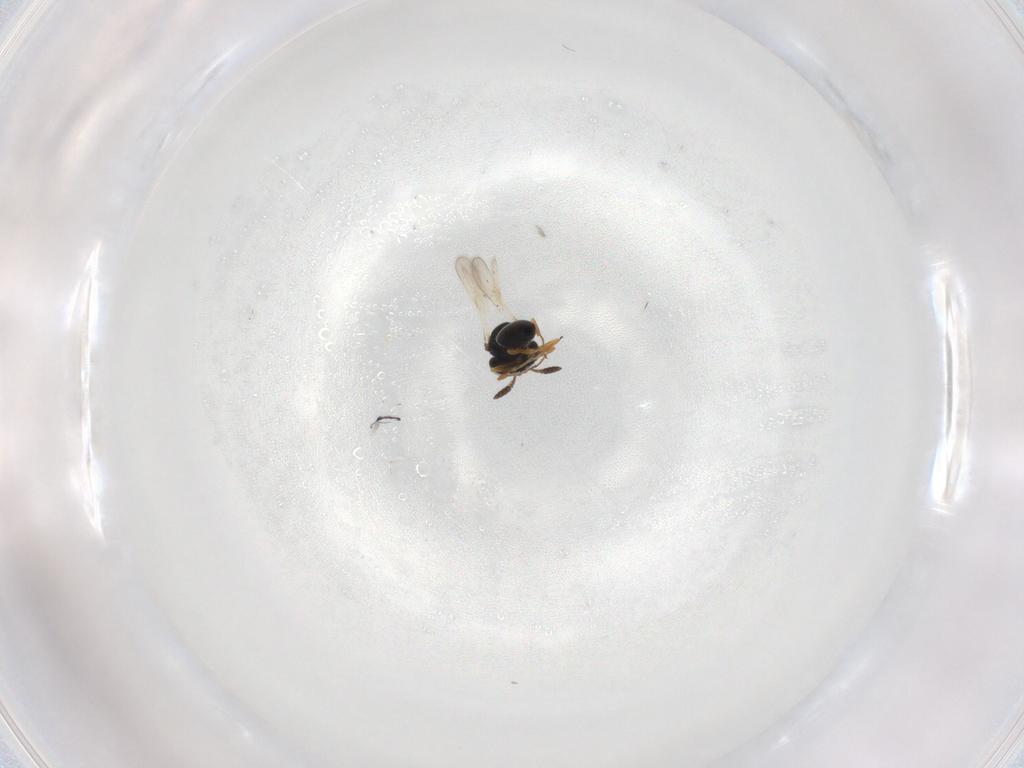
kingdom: Animalia
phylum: Arthropoda
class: Insecta
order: Hymenoptera
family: Scelionidae
